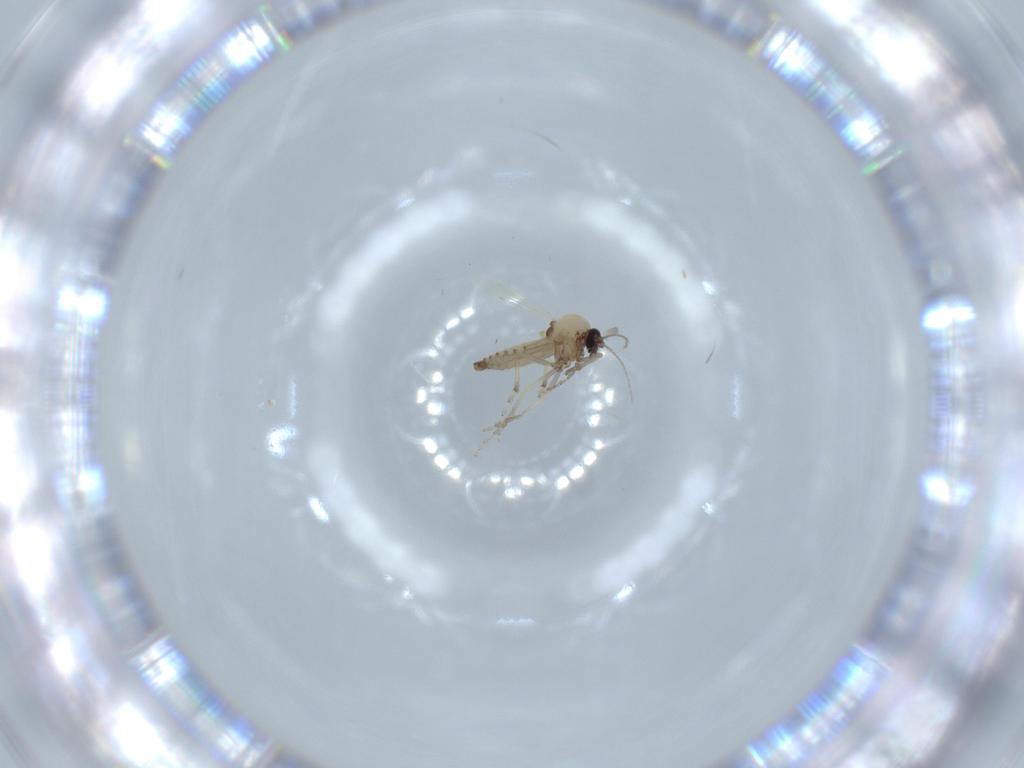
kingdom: Animalia
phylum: Arthropoda
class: Insecta
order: Diptera
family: Ceratopogonidae
